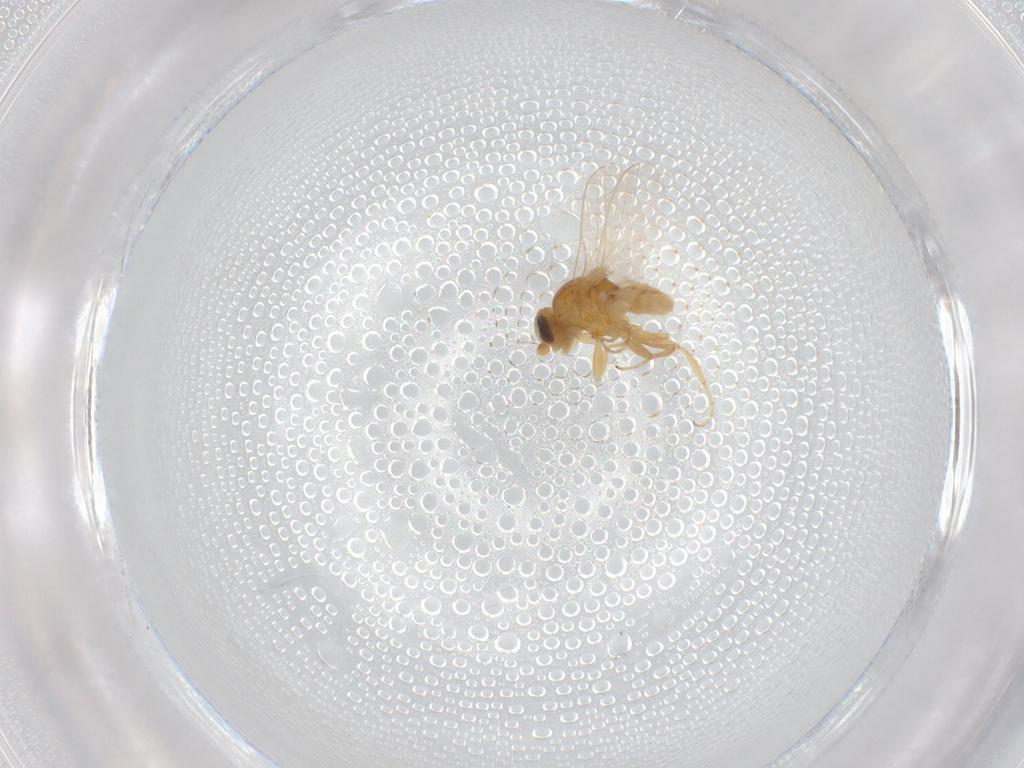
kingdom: Animalia
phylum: Arthropoda
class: Insecta
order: Diptera
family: Chloropidae
